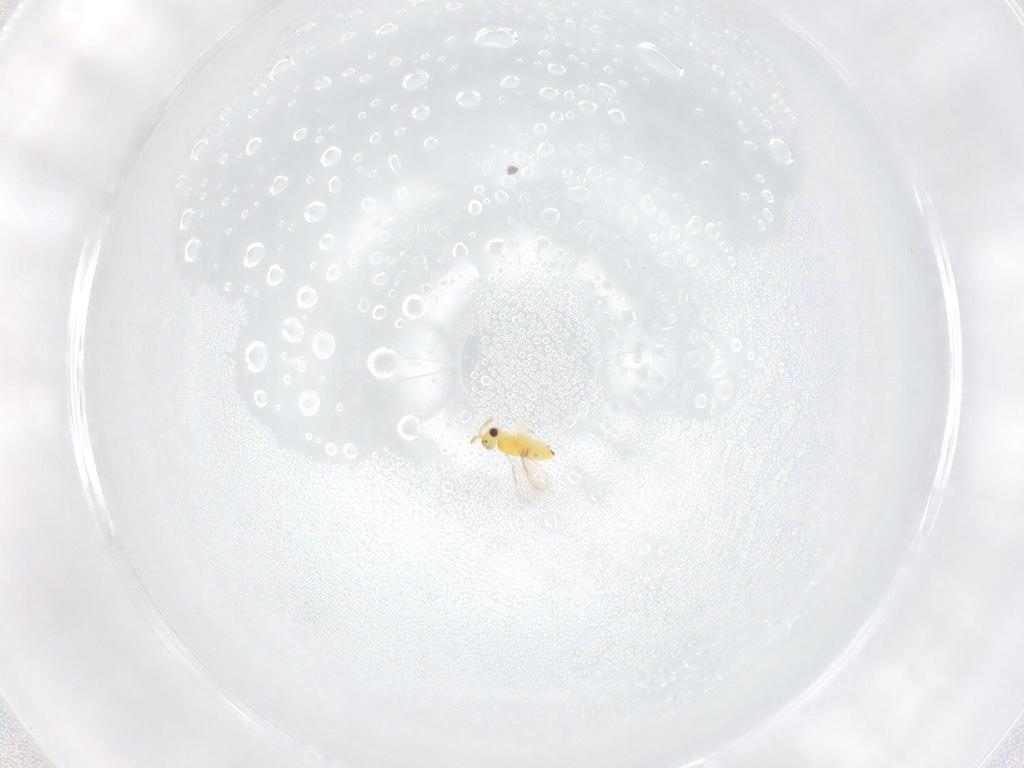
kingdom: Animalia
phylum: Arthropoda
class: Insecta
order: Hymenoptera
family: Aphelinidae
